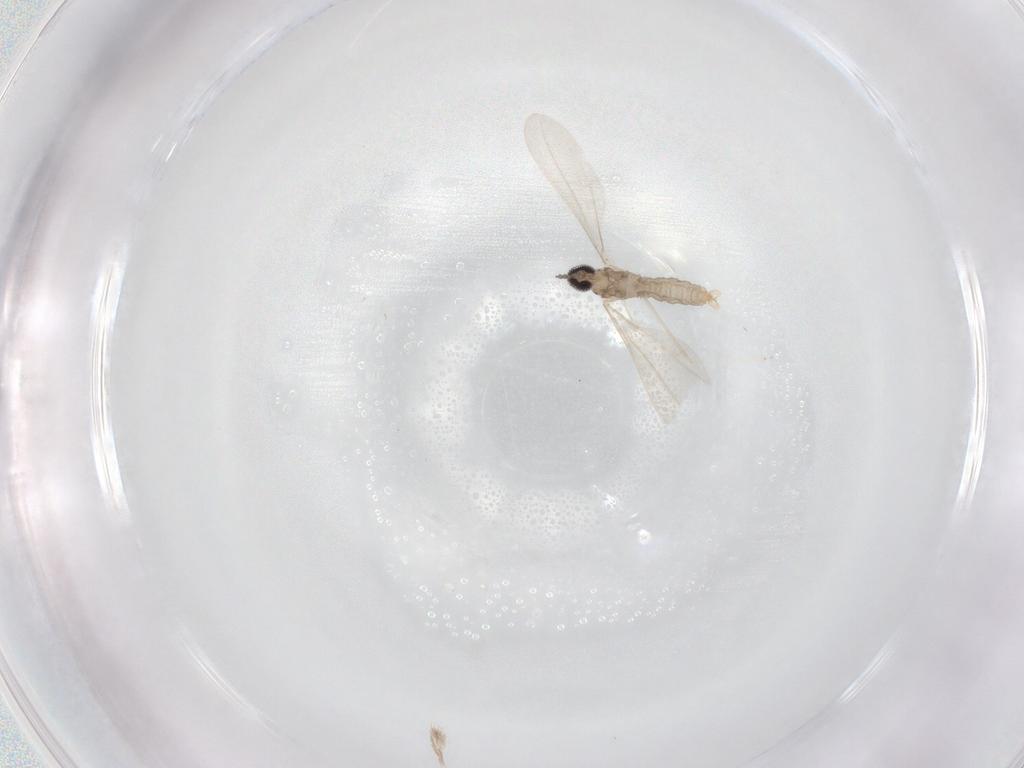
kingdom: Animalia
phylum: Arthropoda
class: Insecta
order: Diptera
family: Cecidomyiidae
